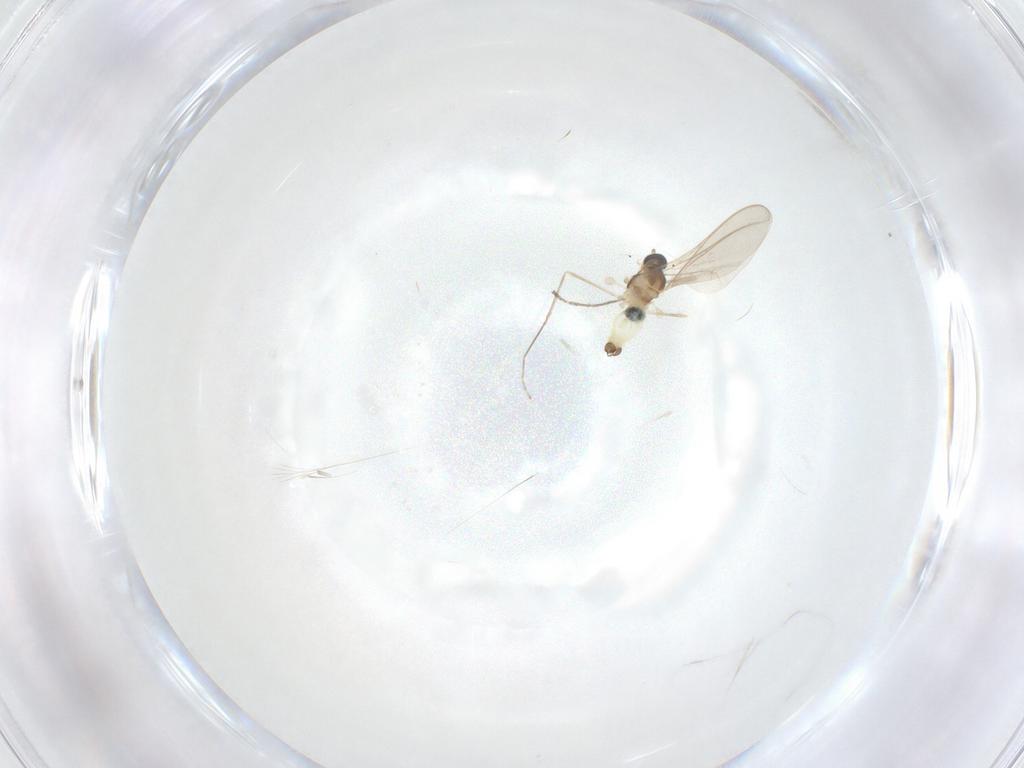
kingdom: Animalia
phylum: Arthropoda
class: Insecta
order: Diptera
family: Cecidomyiidae
